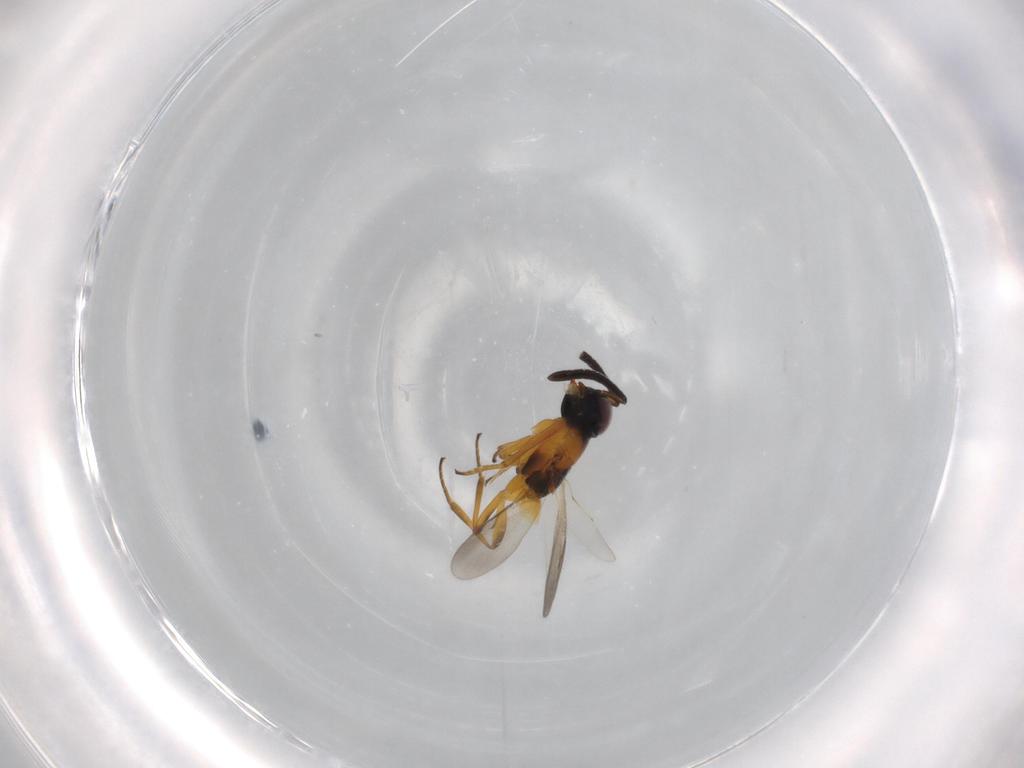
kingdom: Animalia
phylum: Arthropoda
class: Insecta
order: Hymenoptera
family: Encyrtidae
